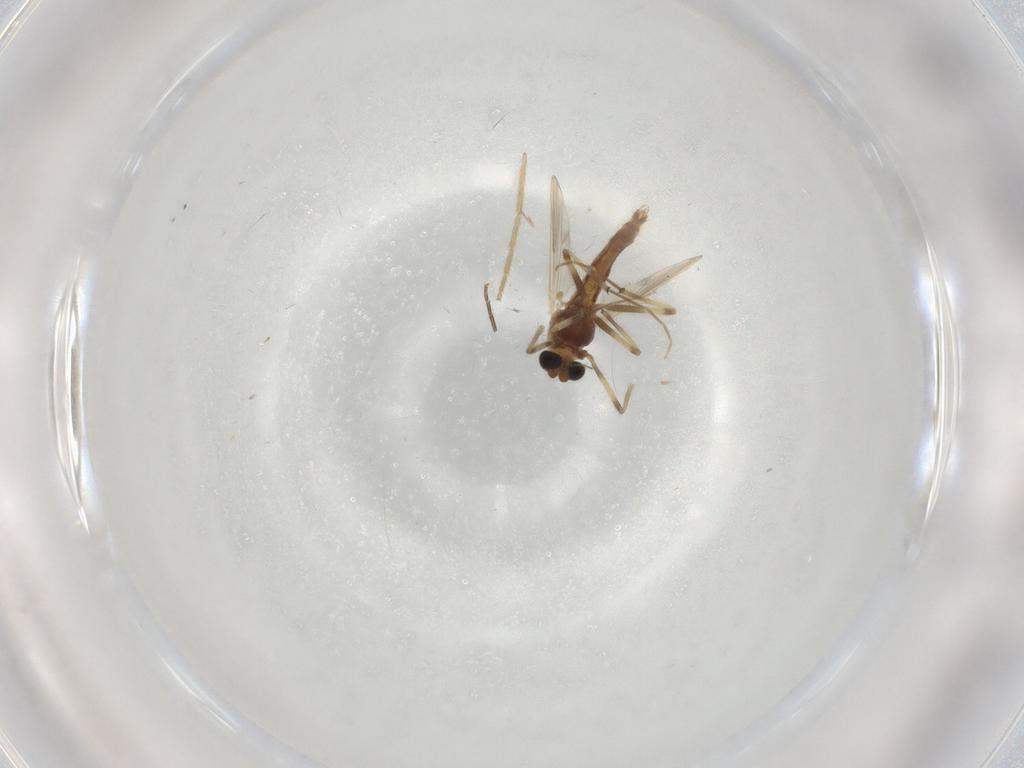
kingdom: Animalia
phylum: Arthropoda
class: Insecta
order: Diptera
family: Chironomidae
